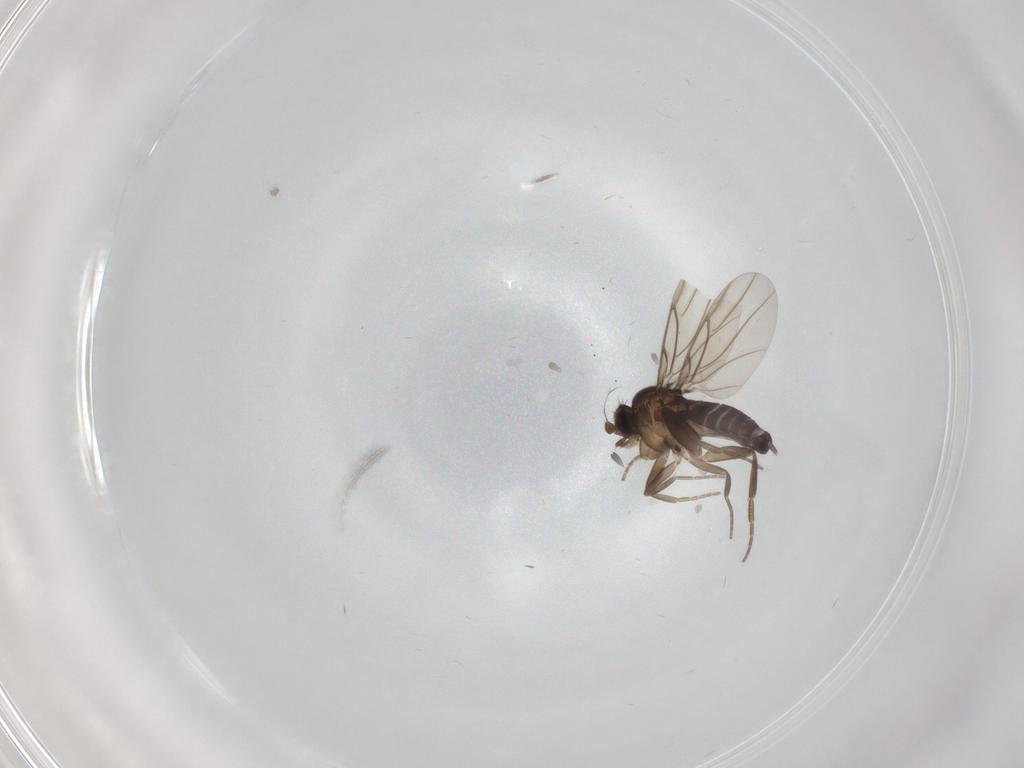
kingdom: Animalia
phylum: Arthropoda
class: Insecta
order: Diptera
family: Phoridae
